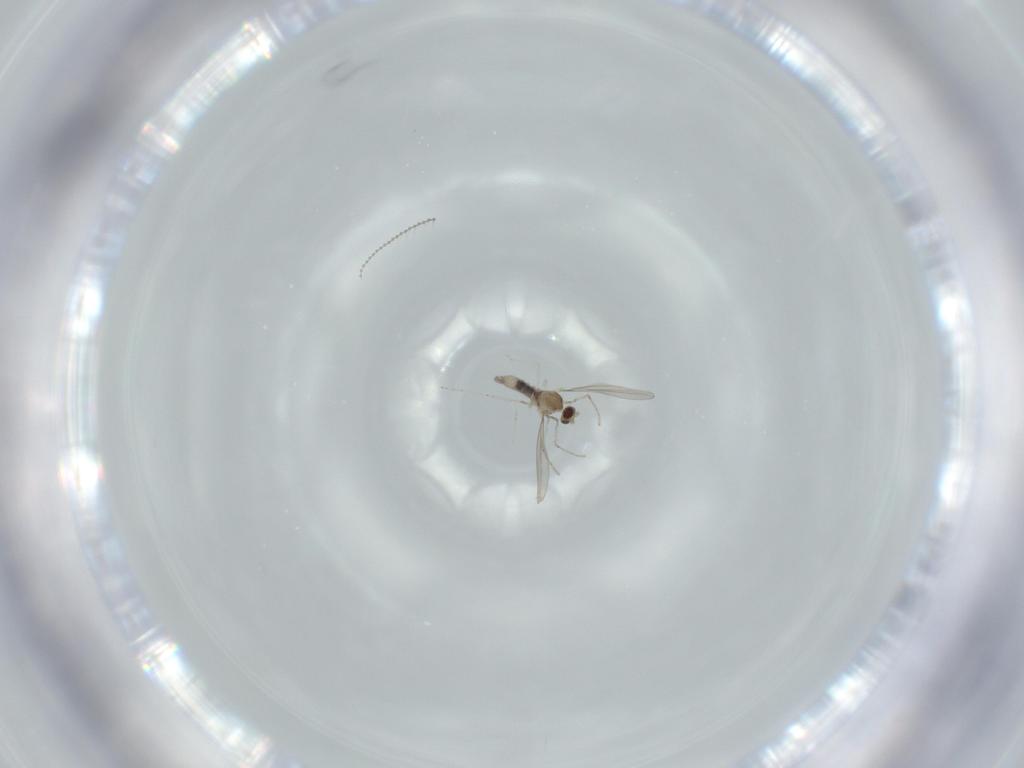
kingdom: Animalia
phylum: Arthropoda
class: Insecta
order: Diptera
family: Micropezidae
